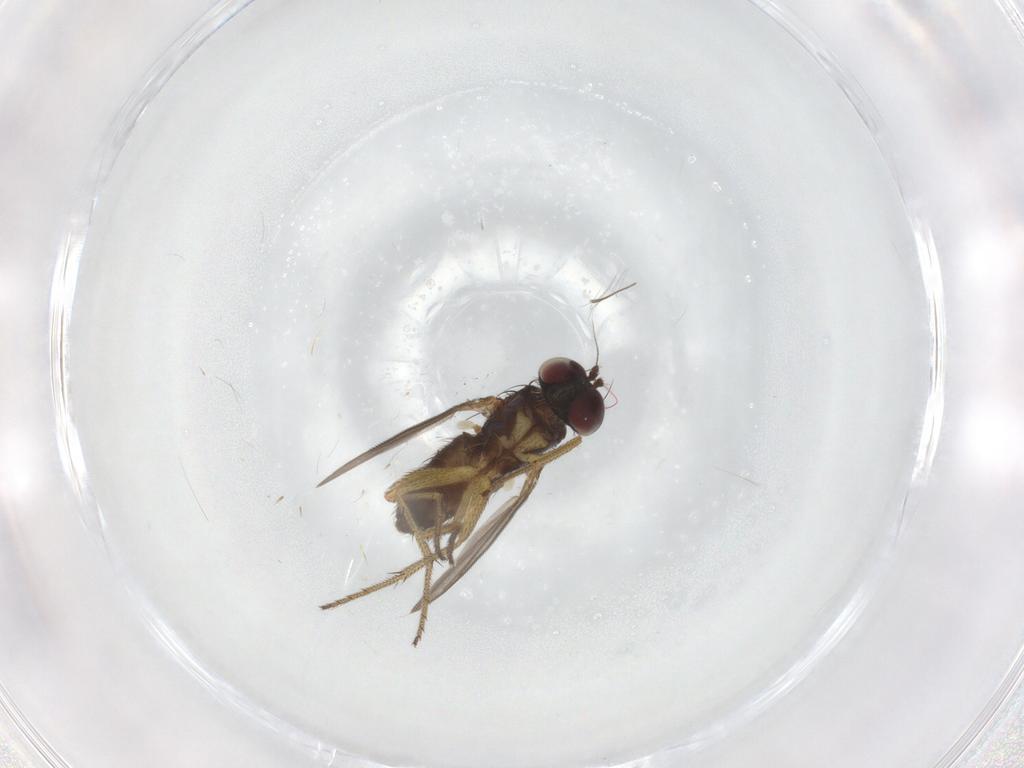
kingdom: Animalia
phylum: Arthropoda
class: Insecta
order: Diptera
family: Dolichopodidae
